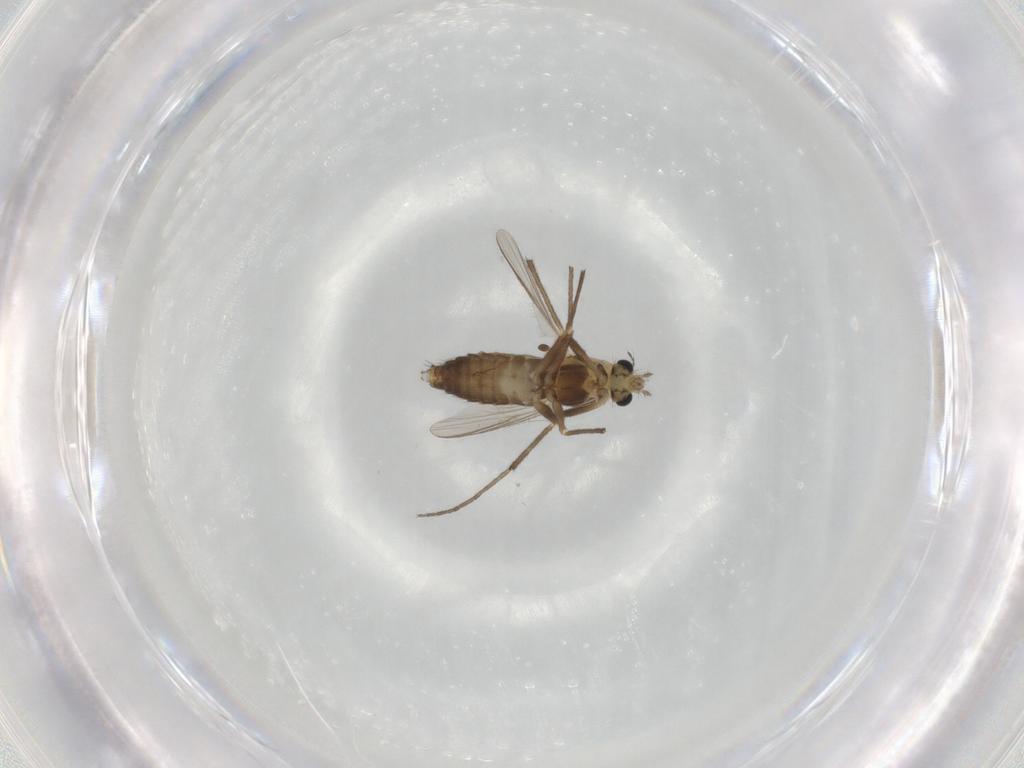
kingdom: Animalia
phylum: Arthropoda
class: Insecta
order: Diptera
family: Chironomidae
